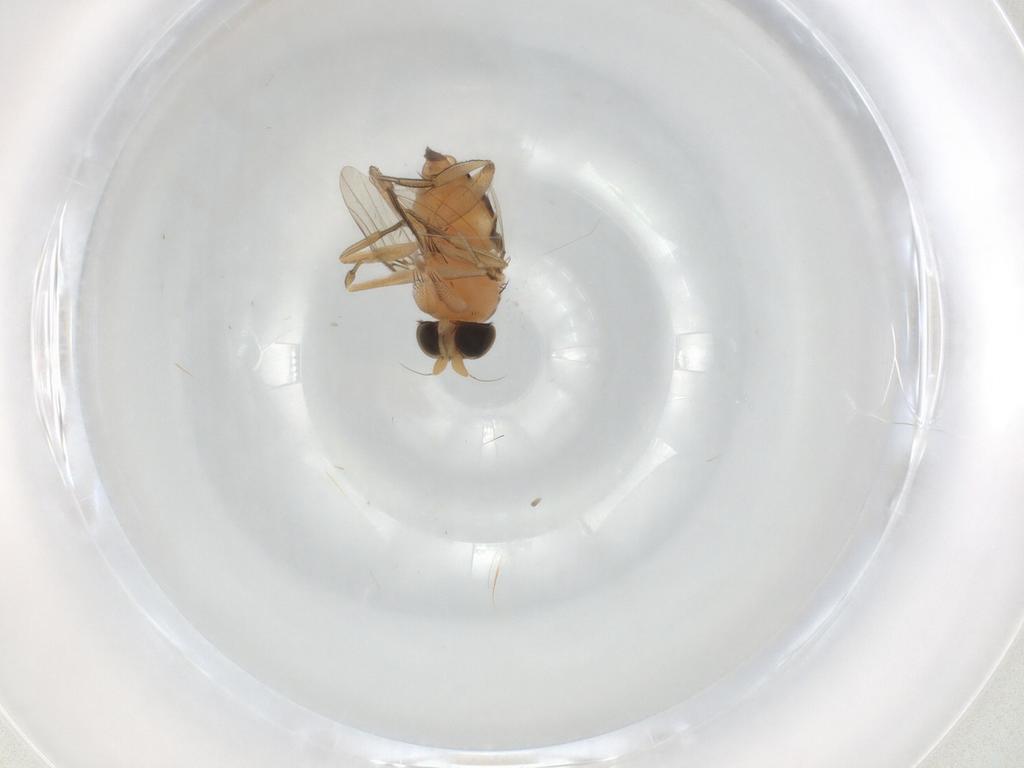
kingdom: Animalia
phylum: Arthropoda
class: Insecta
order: Diptera
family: Phoridae
